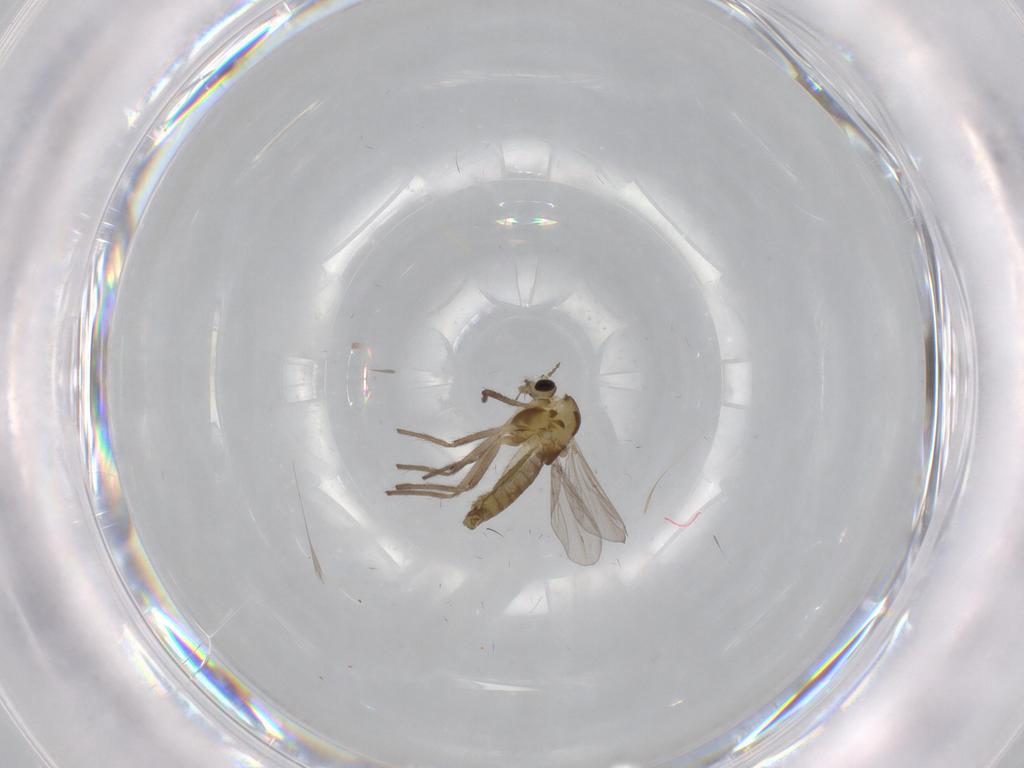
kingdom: Animalia
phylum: Arthropoda
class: Insecta
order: Diptera
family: Chironomidae
